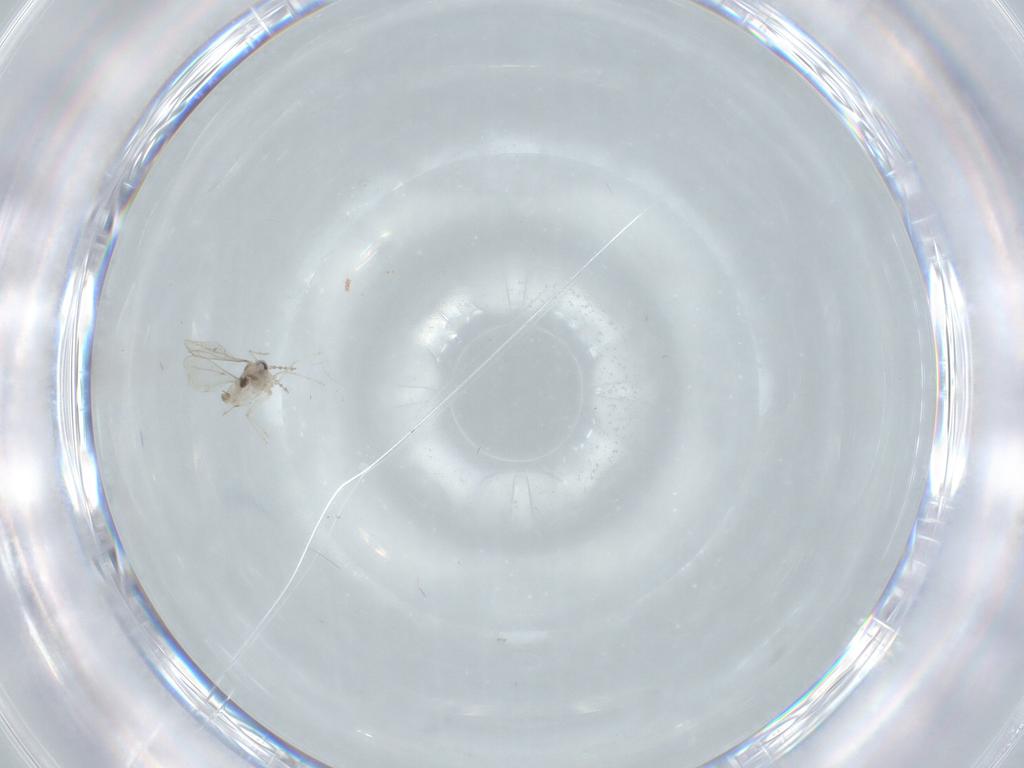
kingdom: Animalia
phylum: Arthropoda
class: Insecta
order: Diptera
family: Cecidomyiidae
